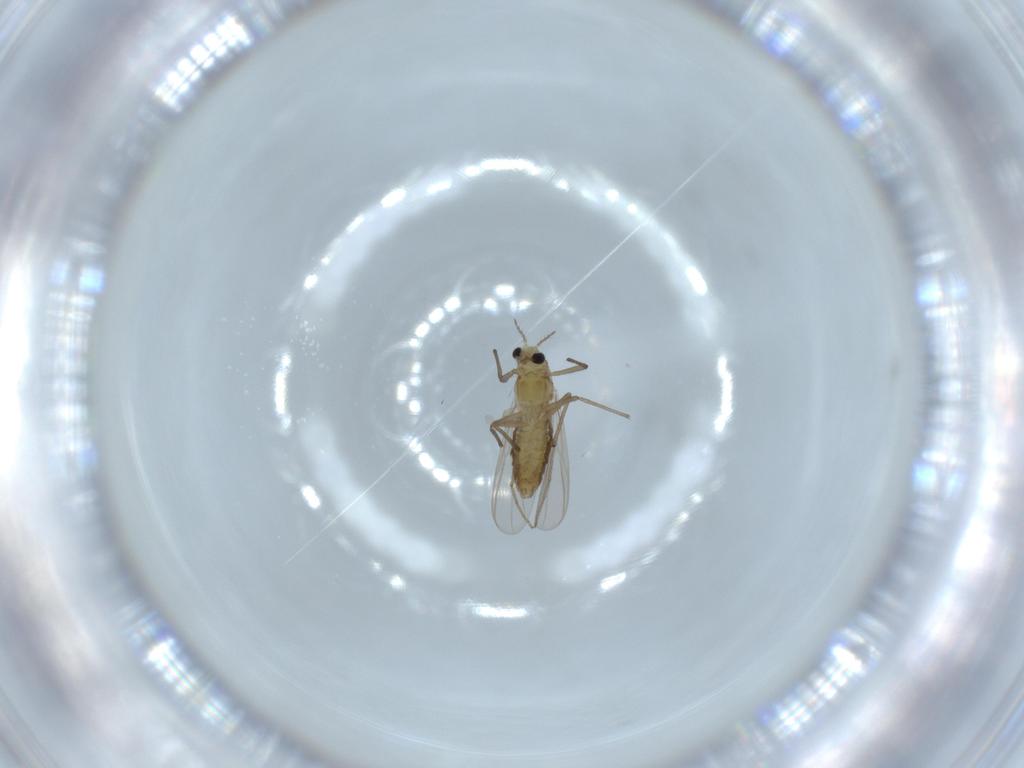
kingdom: Animalia
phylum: Arthropoda
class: Insecta
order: Diptera
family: Chironomidae
